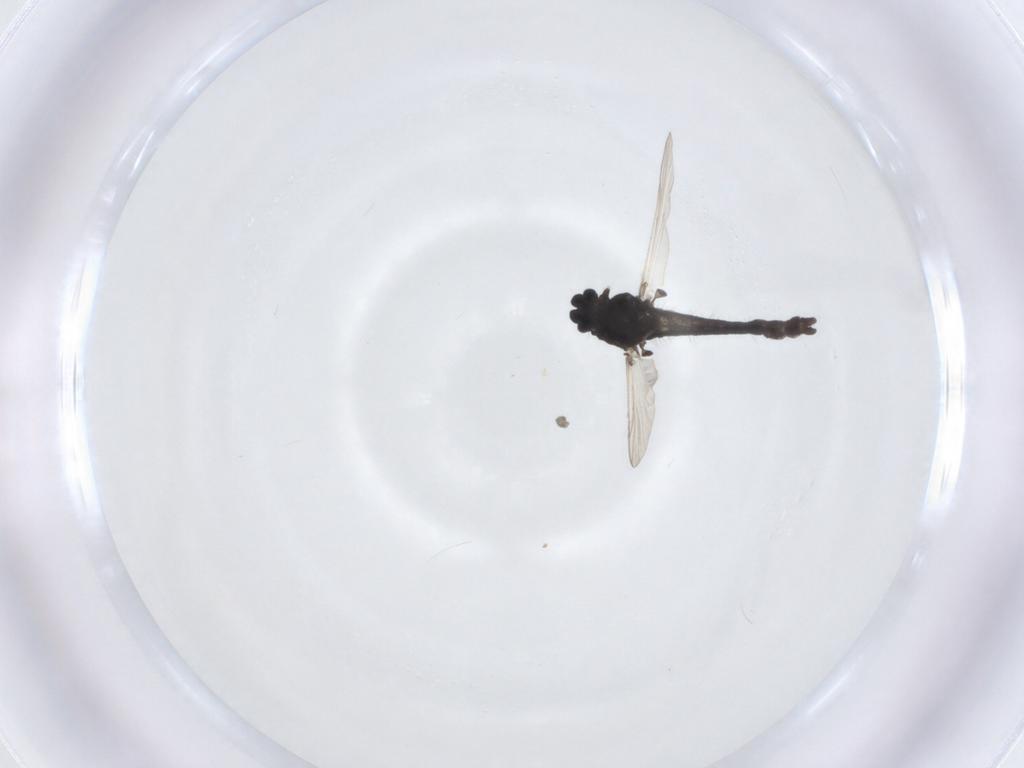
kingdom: Animalia
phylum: Arthropoda
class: Insecta
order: Diptera
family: Chironomidae
